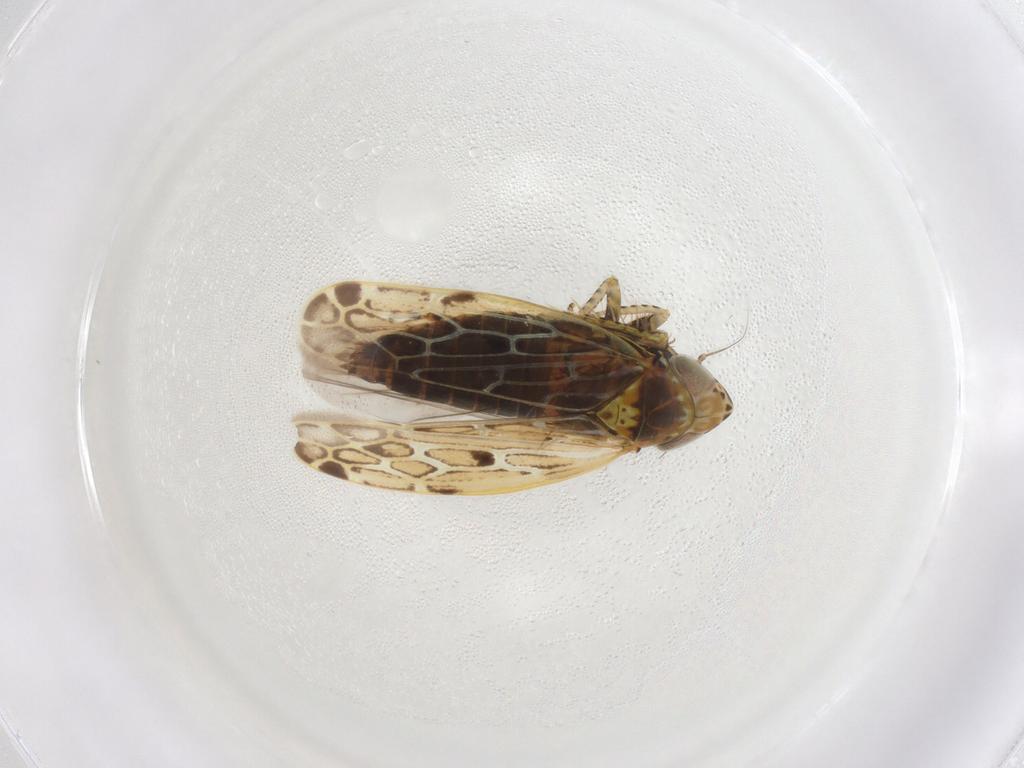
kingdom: Animalia
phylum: Arthropoda
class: Insecta
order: Hemiptera
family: Cicadellidae
